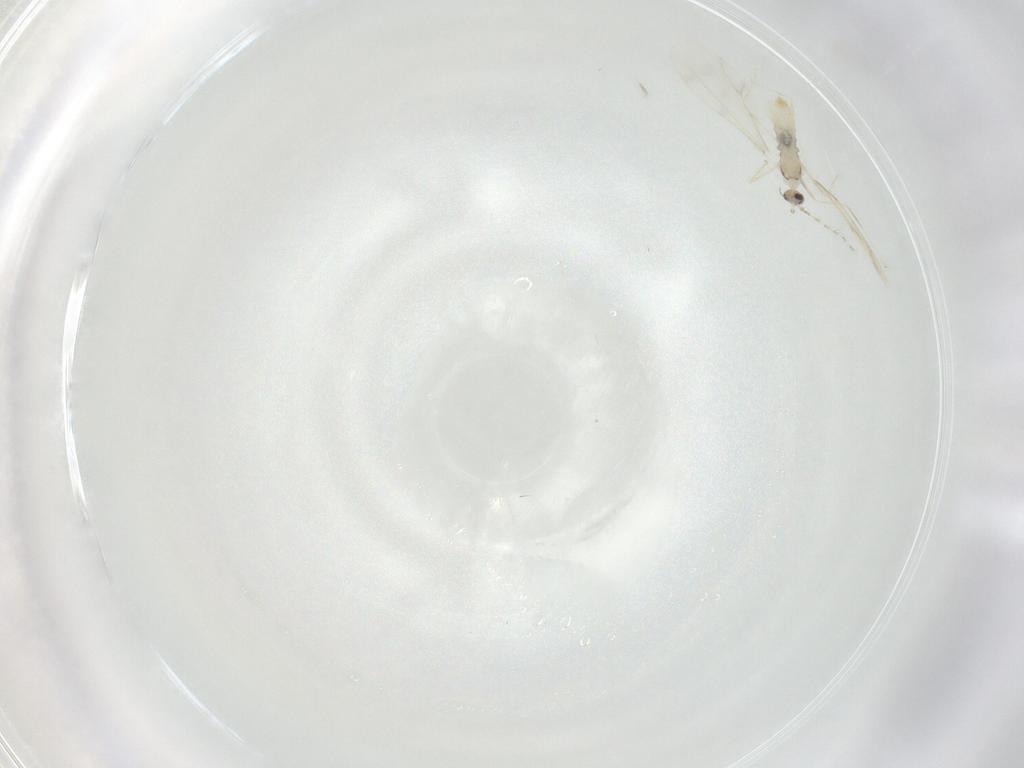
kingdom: Animalia
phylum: Arthropoda
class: Insecta
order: Diptera
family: Cecidomyiidae
